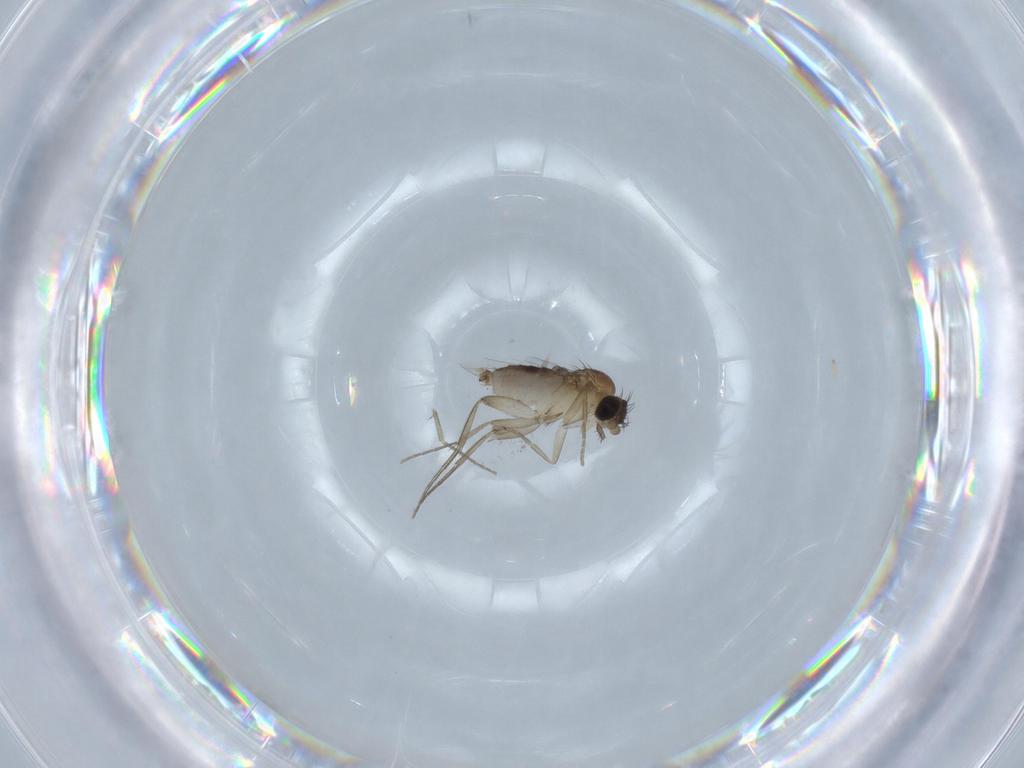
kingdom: Animalia
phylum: Arthropoda
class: Insecta
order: Diptera
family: Phoridae
